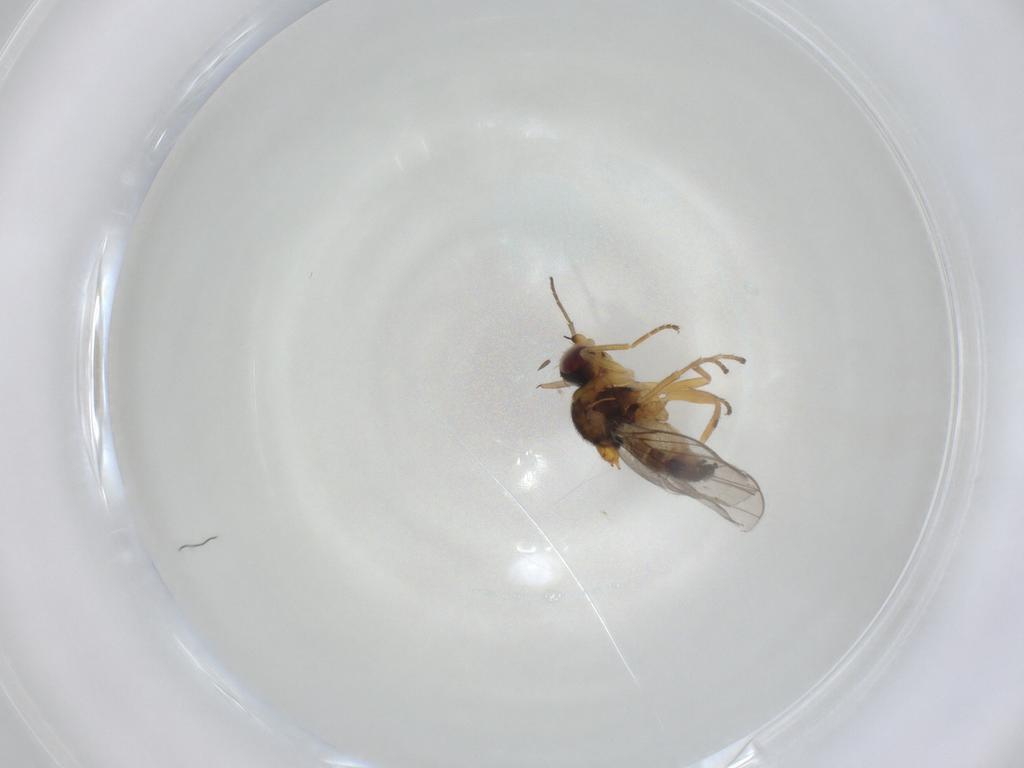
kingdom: Animalia
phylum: Arthropoda
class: Insecta
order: Diptera
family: Chloropidae
